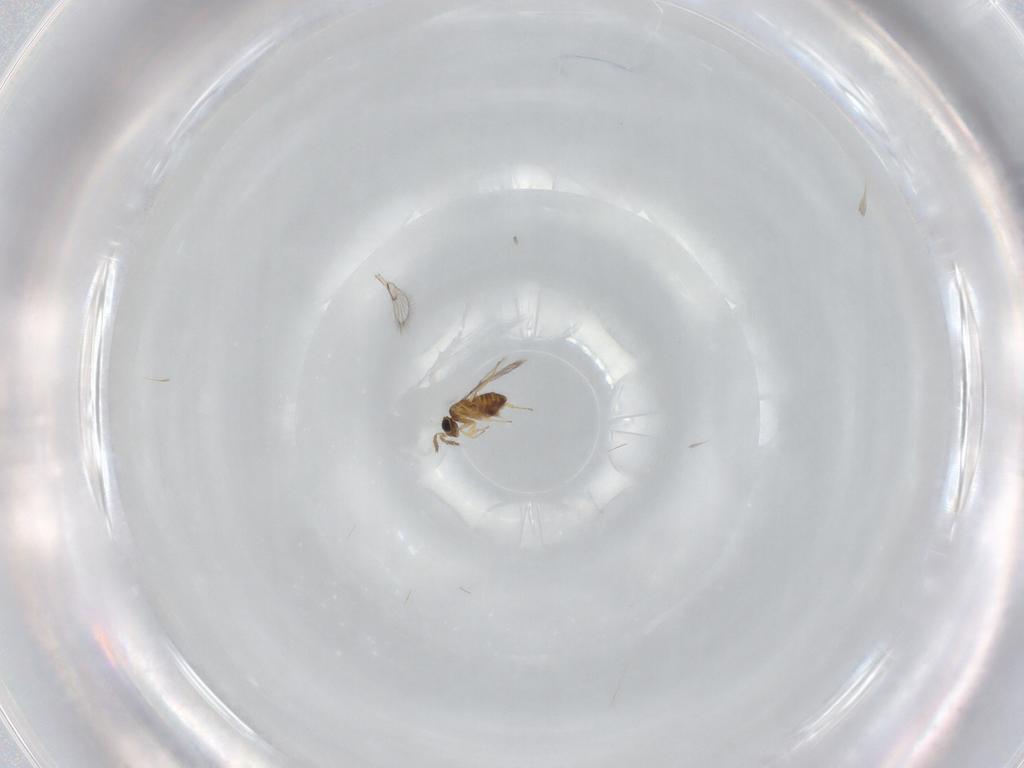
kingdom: Animalia
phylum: Arthropoda
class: Insecta
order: Hymenoptera
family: Trichogrammatidae
